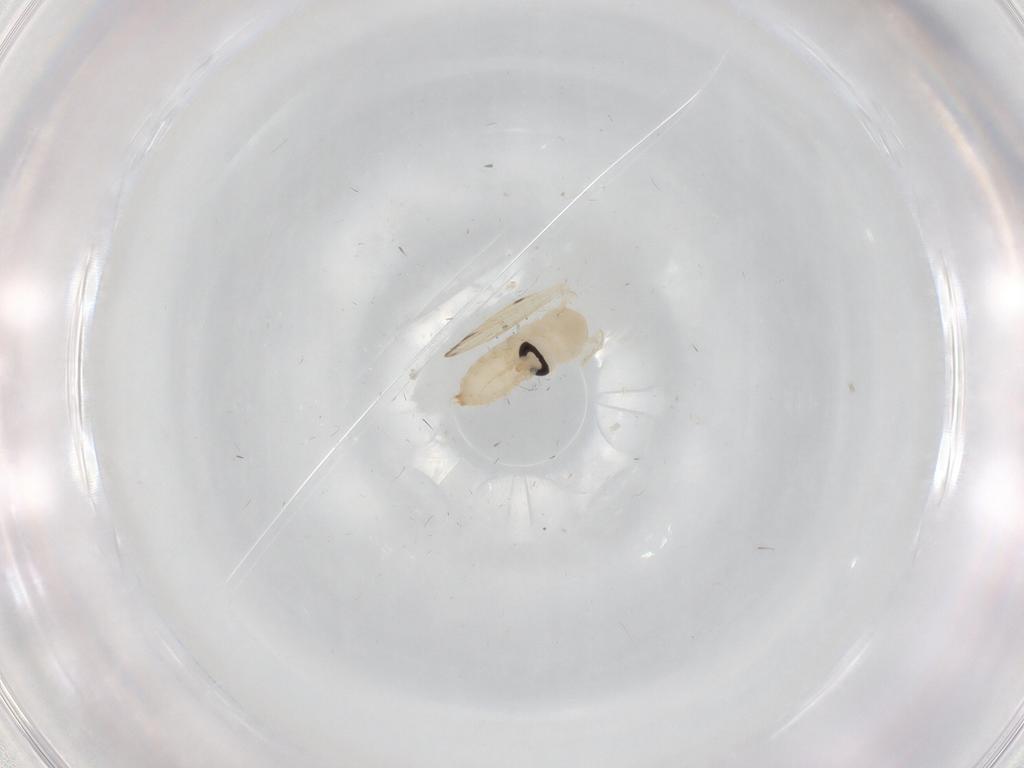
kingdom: Animalia
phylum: Arthropoda
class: Insecta
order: Diptera
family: Psychodidae
